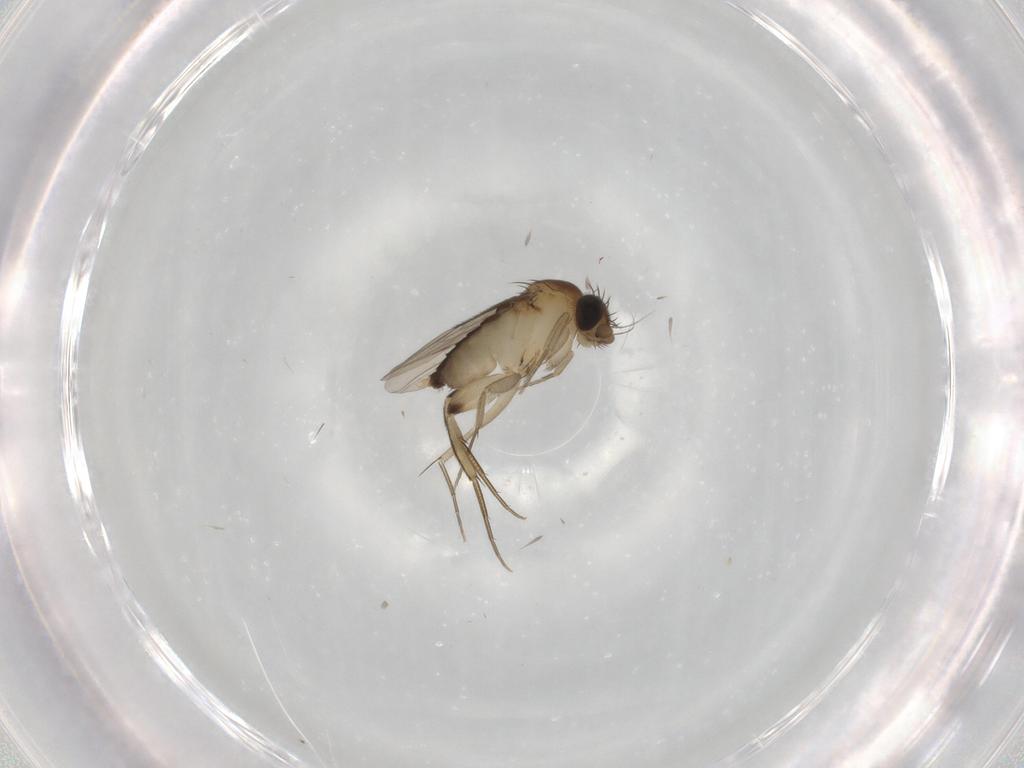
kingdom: Animalia
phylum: Arthropoda
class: Insecta
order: Diptera
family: Phoridae
